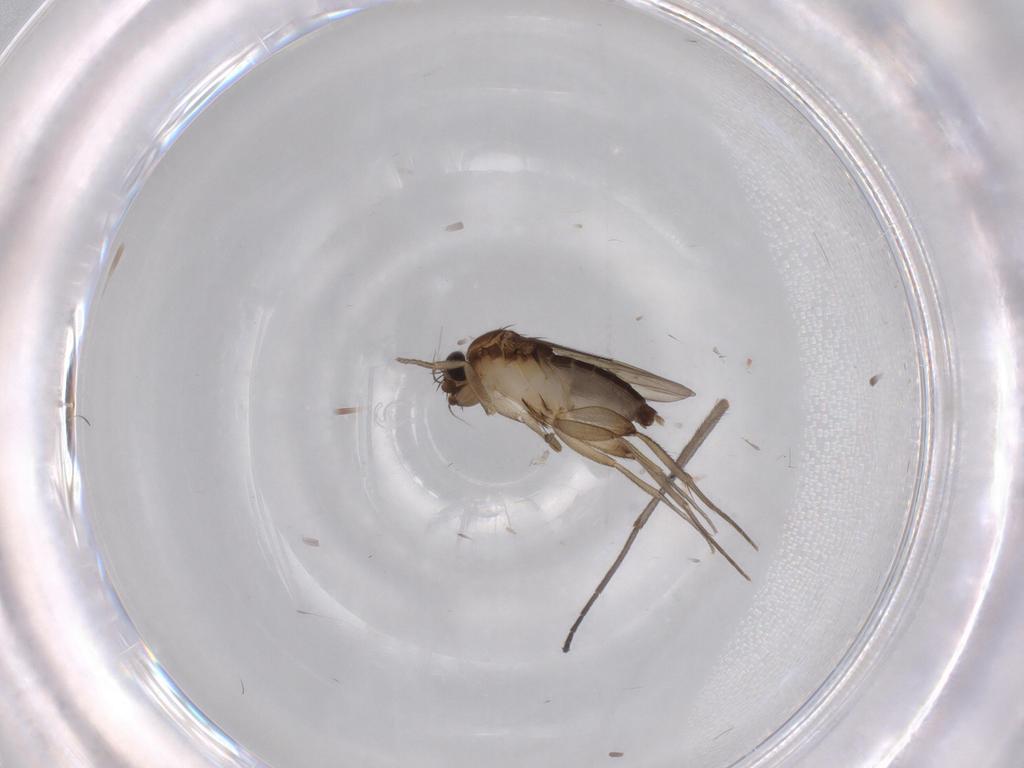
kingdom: Animalia
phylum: Arthropoda
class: Insecta
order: Diptera
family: Phoridae
